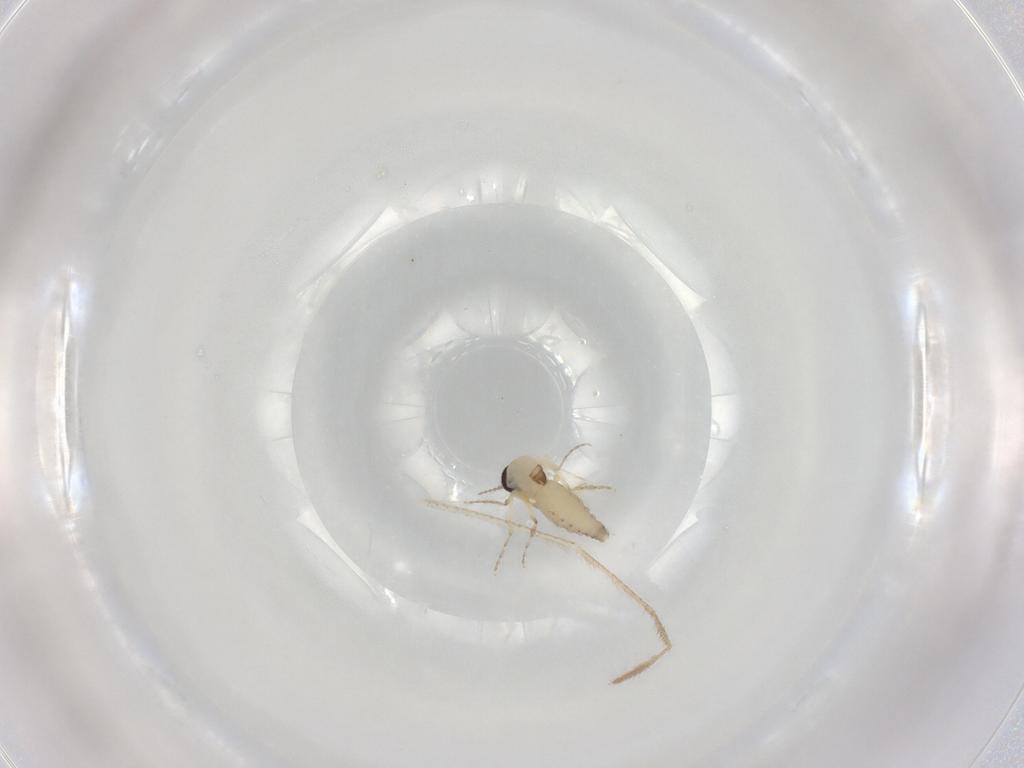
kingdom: Animalia
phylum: Arthropoda
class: Insecta
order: Diptera
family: Ceratopogonidae
